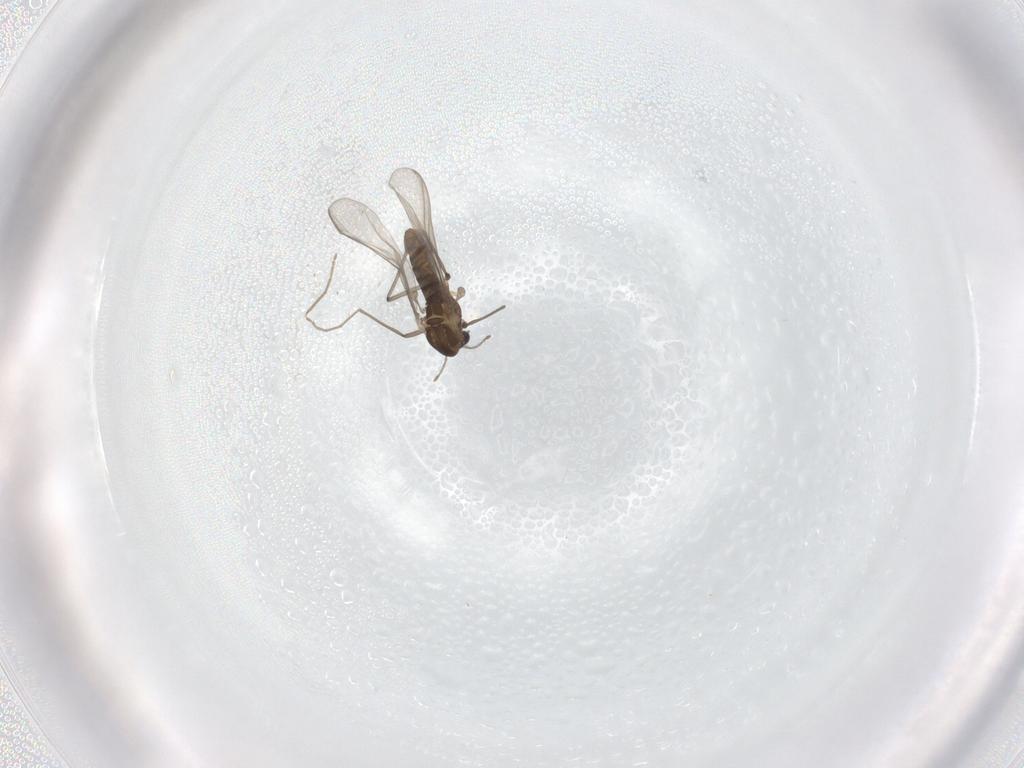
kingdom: Animalia
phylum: Arthropoda
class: Insecta
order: Diptera
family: Chironomidae
